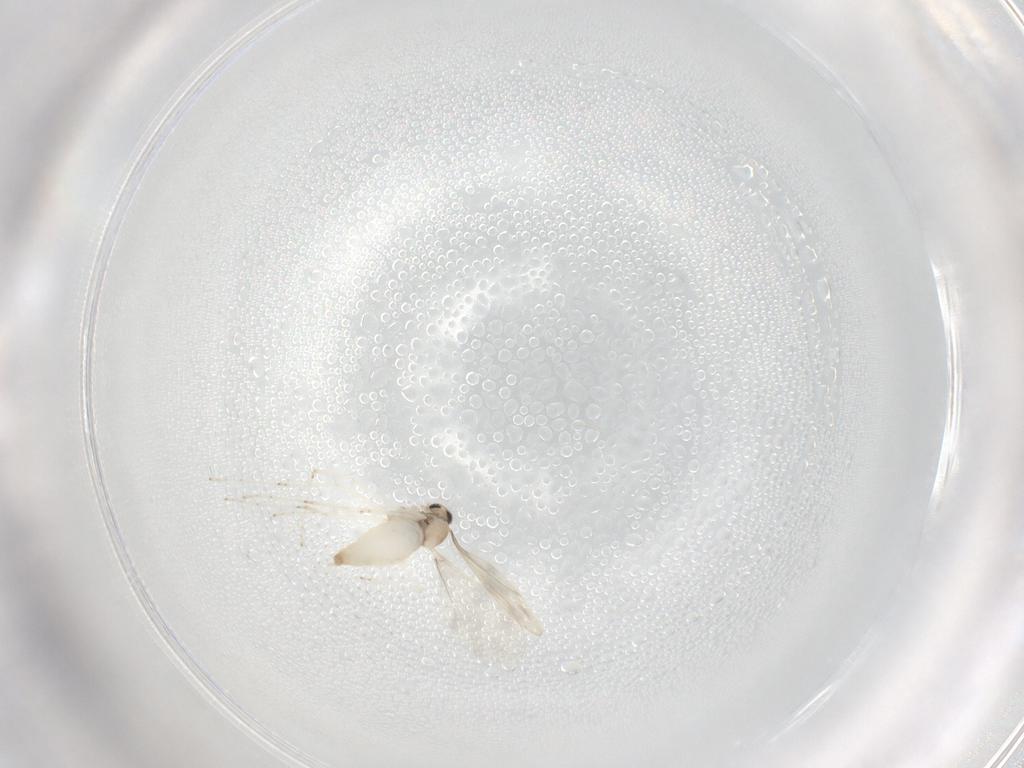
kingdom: Animalia
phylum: Arthropoda
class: Insecta
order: Diptera
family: Cecidomyiidae
